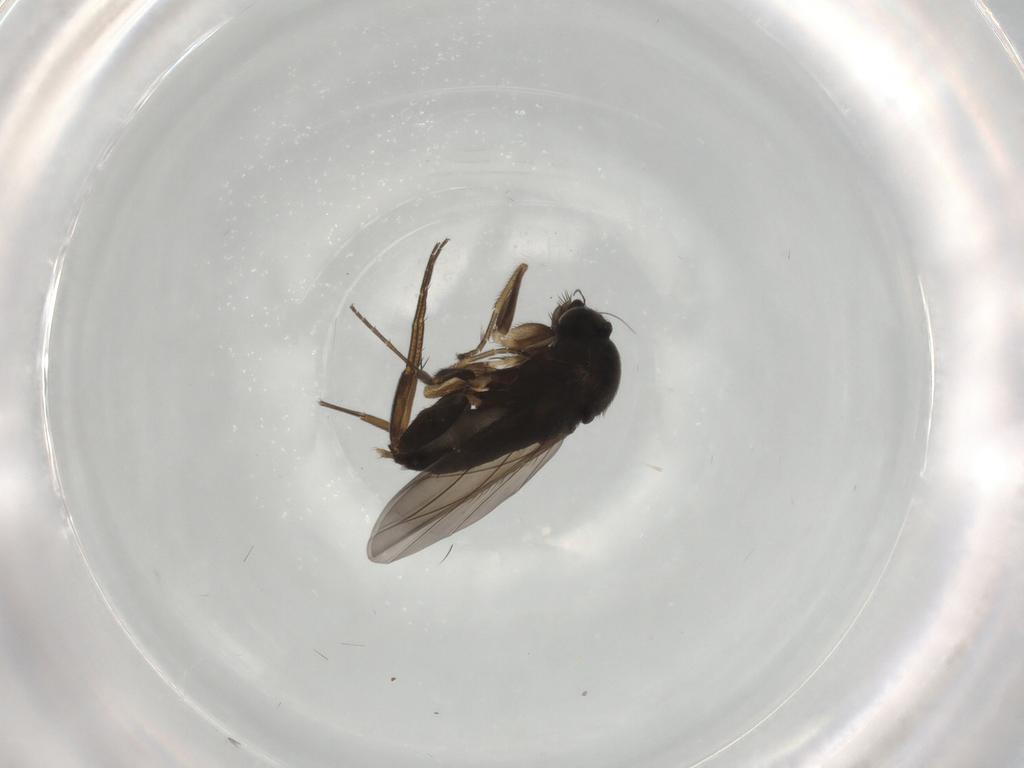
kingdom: Animalia
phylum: Arthropoda
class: Insecta
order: Diptera
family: Phoridae
